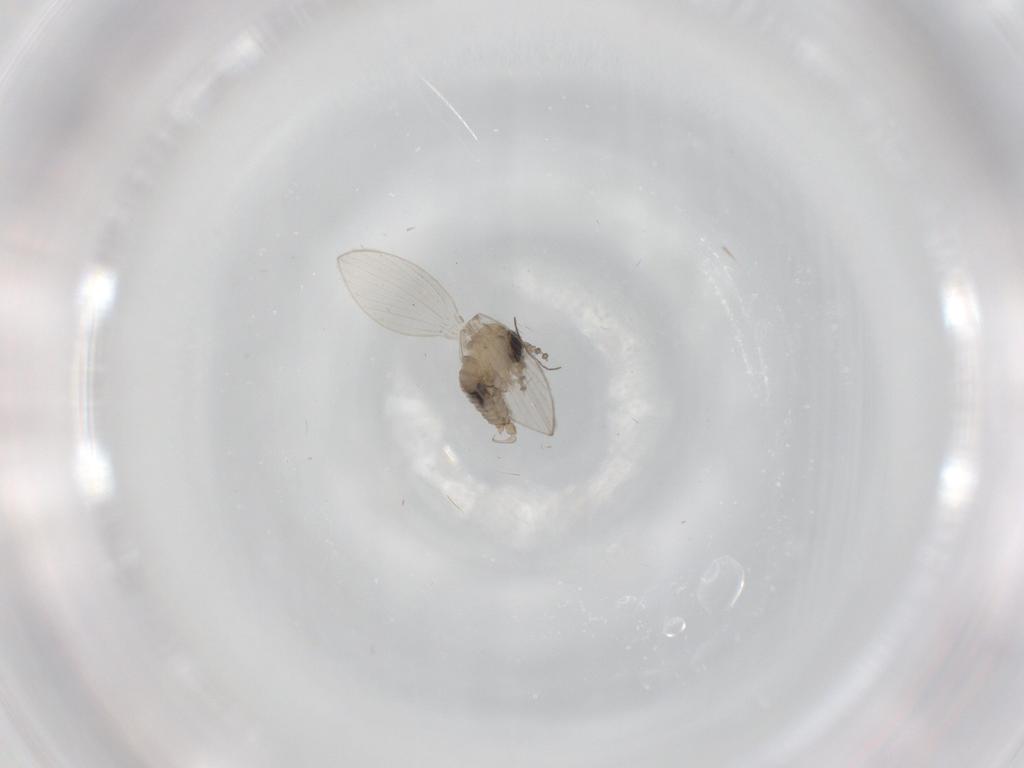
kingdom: Animalia
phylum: Arthropoda
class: Insecta
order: Diptera
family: Psychodidae
